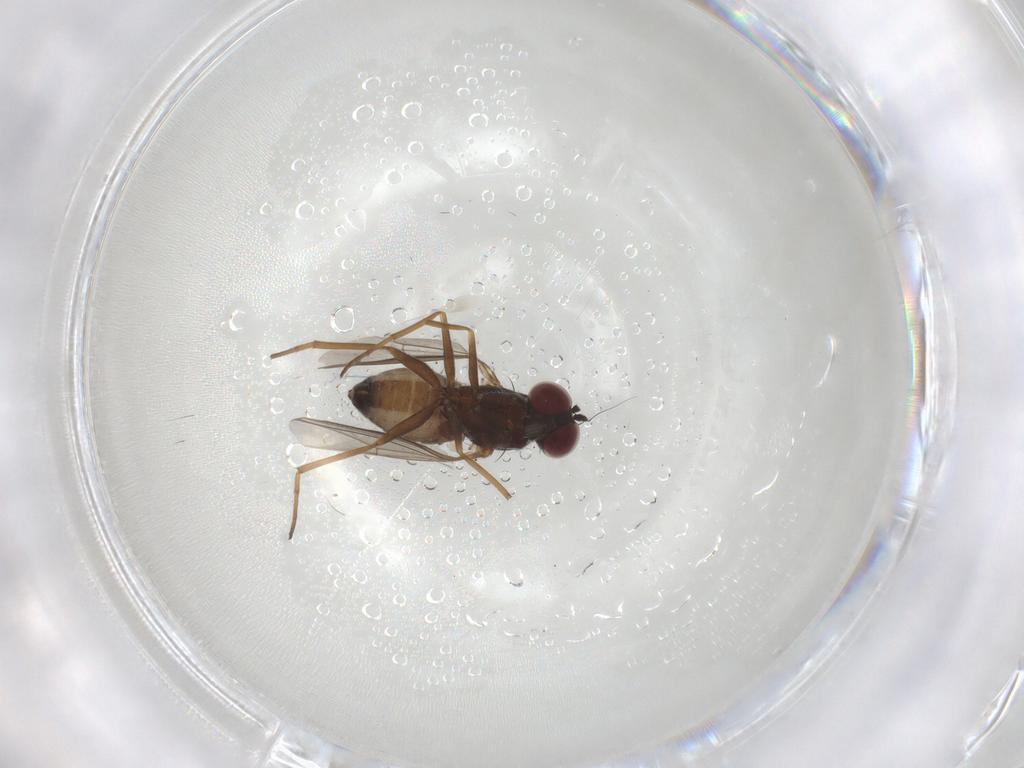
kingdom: Animalia
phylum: Arthropoda
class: Insecta
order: Diptera
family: Dolichopodidae
